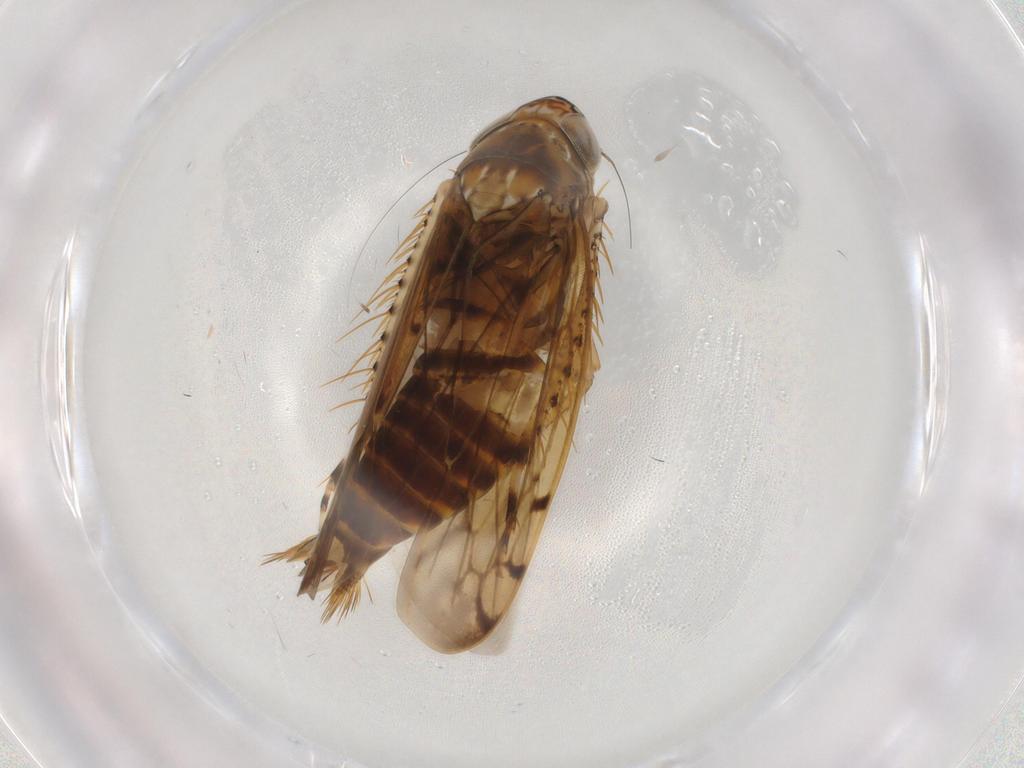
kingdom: Animalia
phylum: Arthropoda
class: Insecta
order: Hemiptera
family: Cicadellidae
